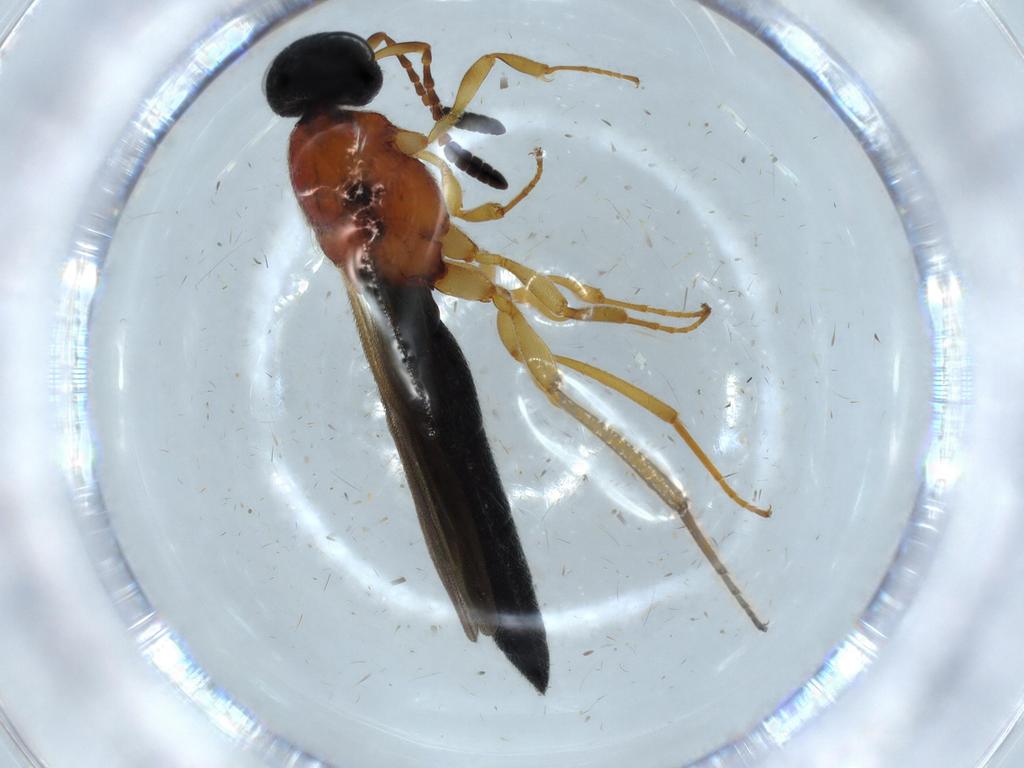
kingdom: Animalia
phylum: Arthropoda
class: Insecta
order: Hymenoptera
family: Scelionidae
